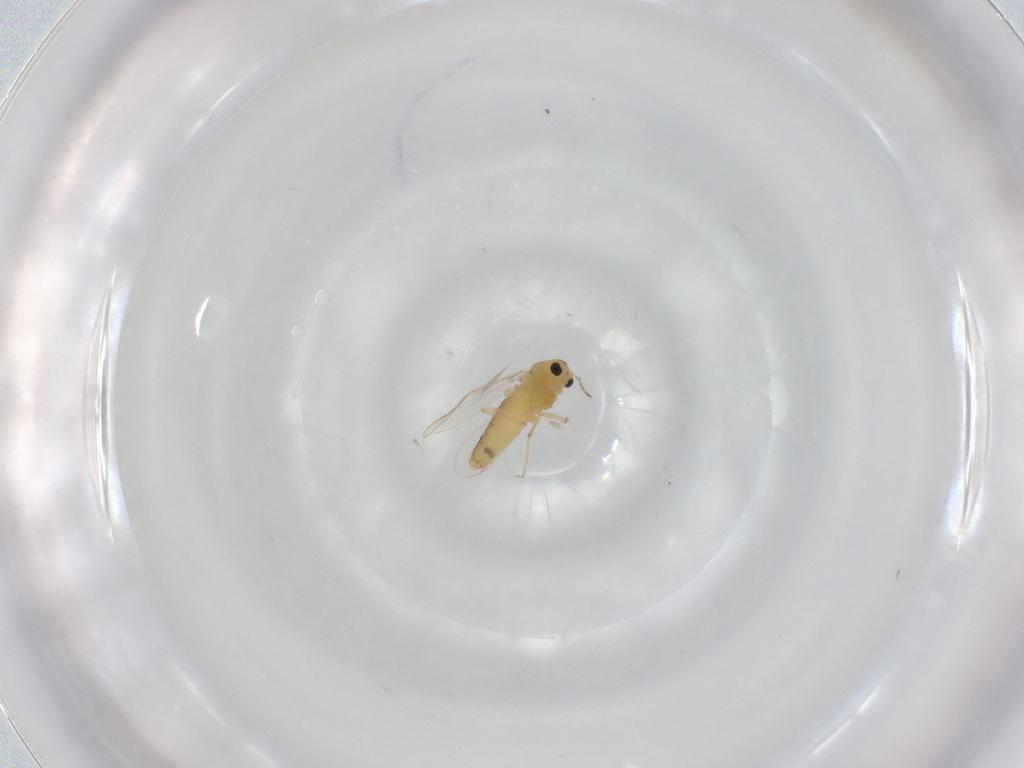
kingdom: Animalia
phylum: Arthropoda
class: Insecta
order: Diptera
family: Chironomidae
